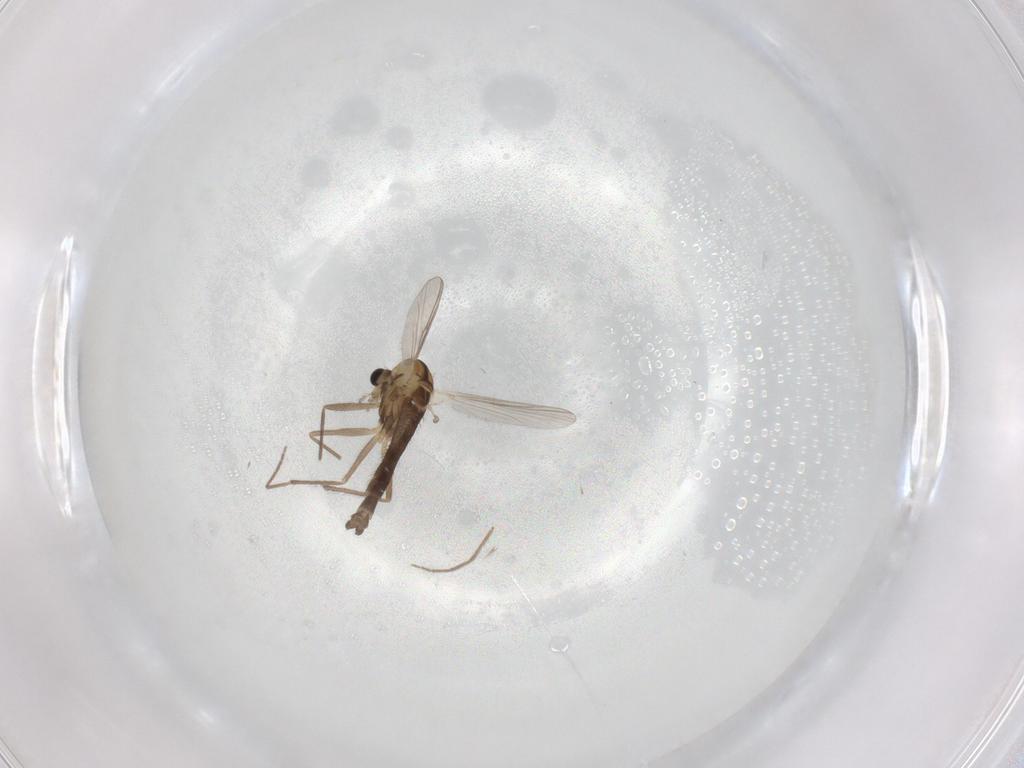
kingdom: Animalia
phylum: Arthropoda
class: Insecta
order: Diptera
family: Chironomidae
